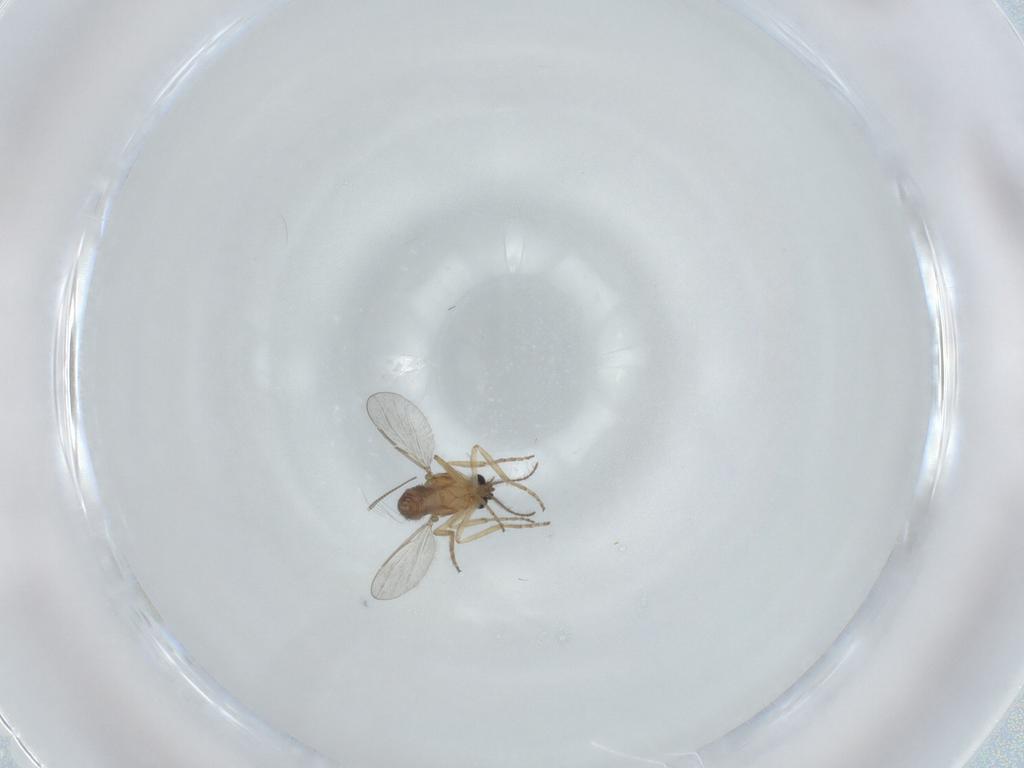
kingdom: Animalia
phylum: Arthropoda
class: Insecta
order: Diptera
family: Chironomidae
